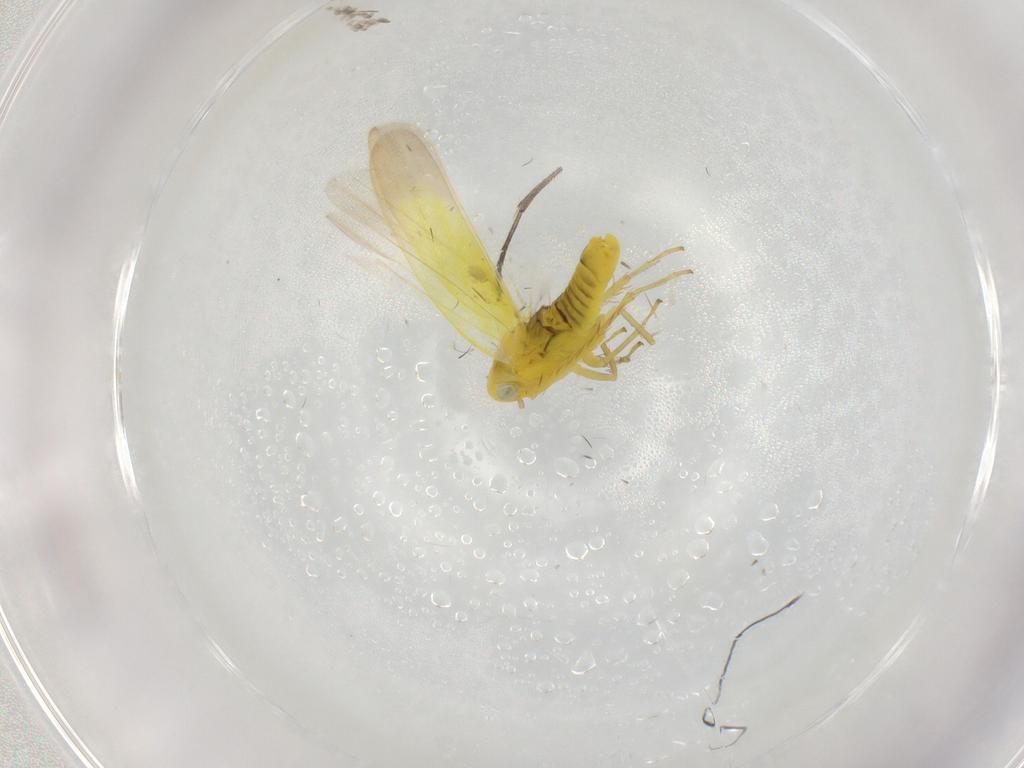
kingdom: Animalia
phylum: Arthropoda
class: Insecta
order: Hemiptera
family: Cicadellidae
